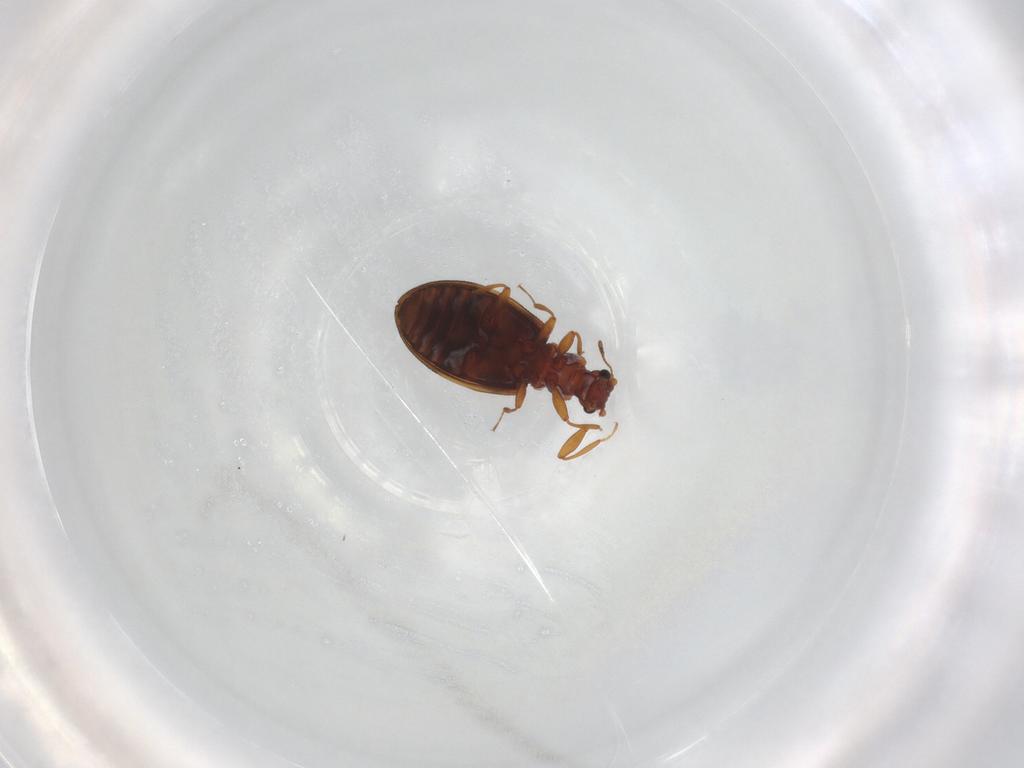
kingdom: Animalia
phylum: Arthropoda
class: Insecta
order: Coleoptera
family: Latridiidae
